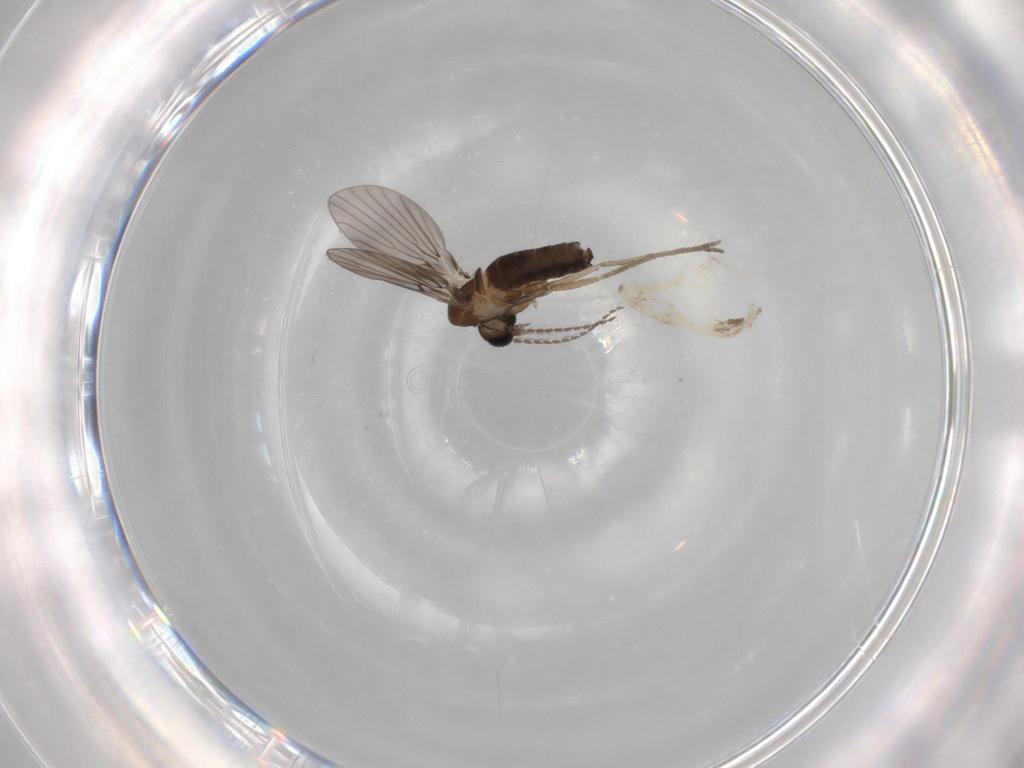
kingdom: Animalia
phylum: Arthropoda
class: Insecta
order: Diptera
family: Psychodidae
